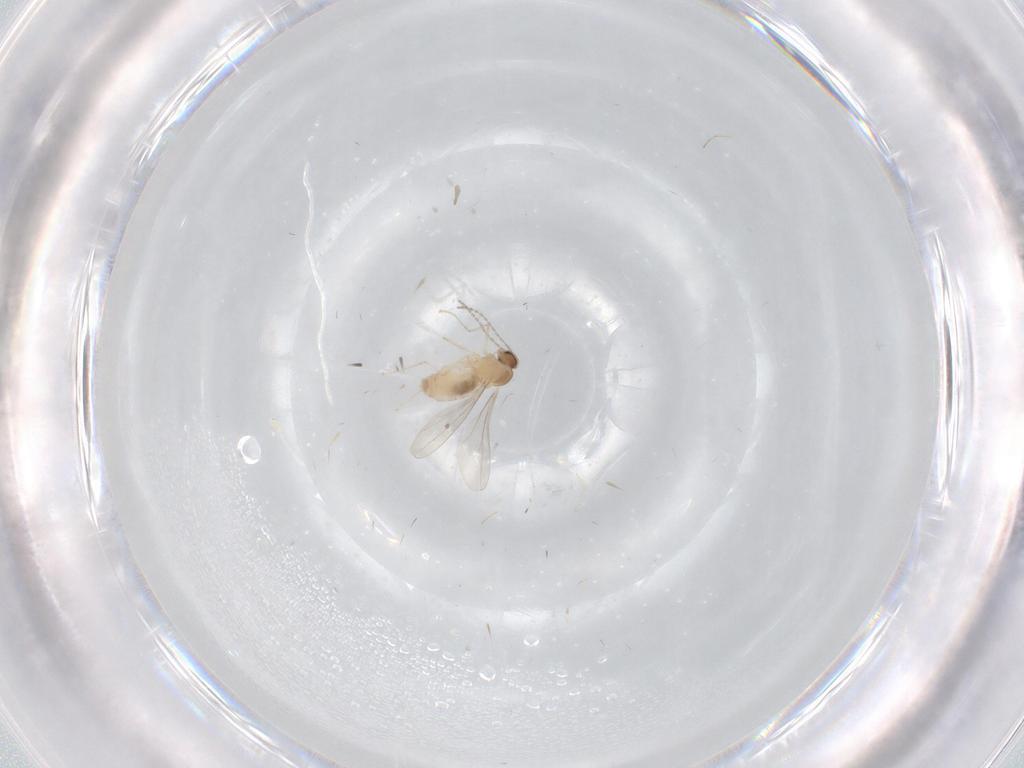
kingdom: Animalia
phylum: Arthropoda
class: Insecta
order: Diptera
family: Cecidomyiidae
